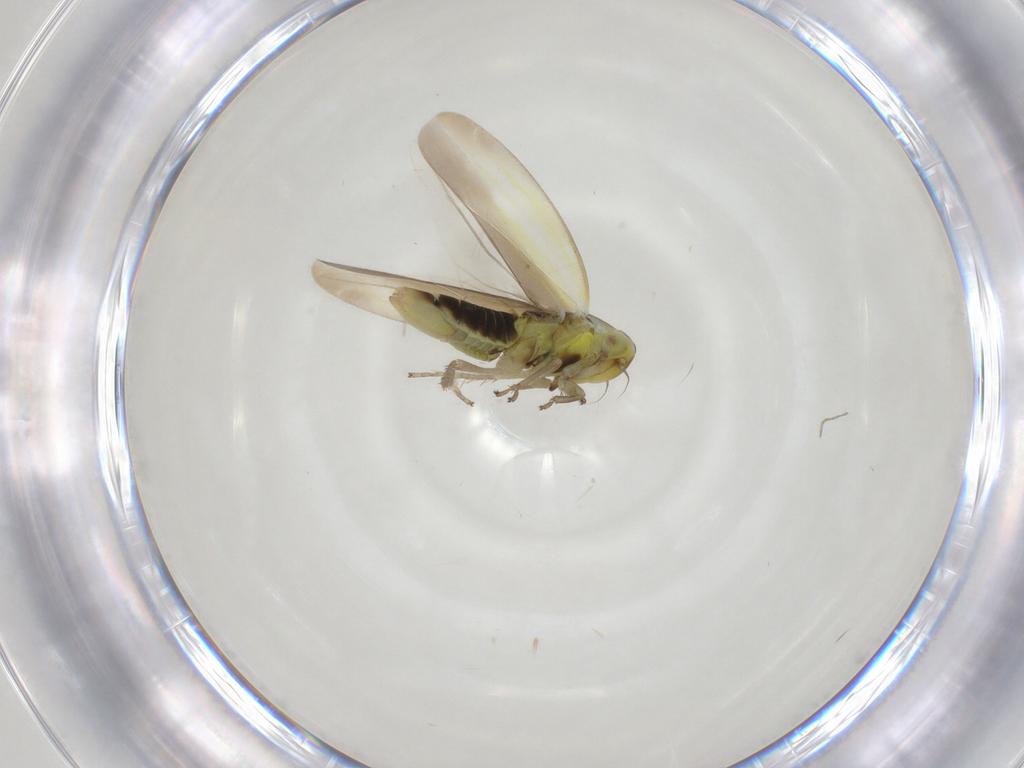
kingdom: Animalia
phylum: Arthropoda
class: Insecta
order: Hemiptera
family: Cicadellidae
